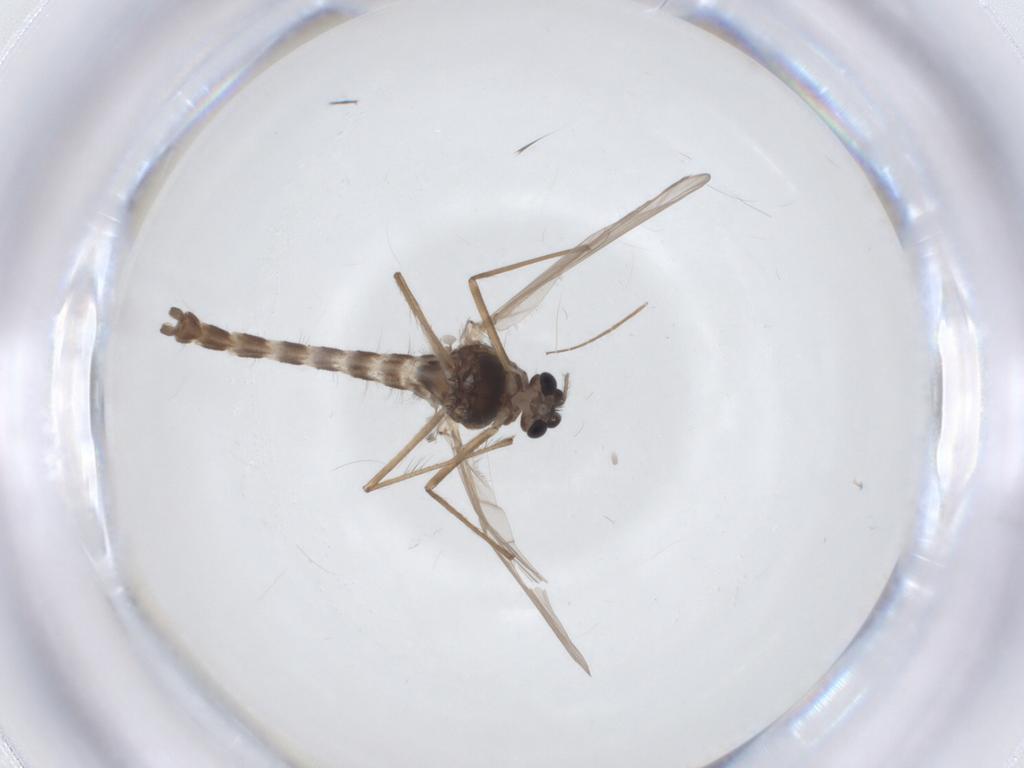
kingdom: Animalia
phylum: Arthropoda
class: Insecta
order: Diptera
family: Chironomidae
